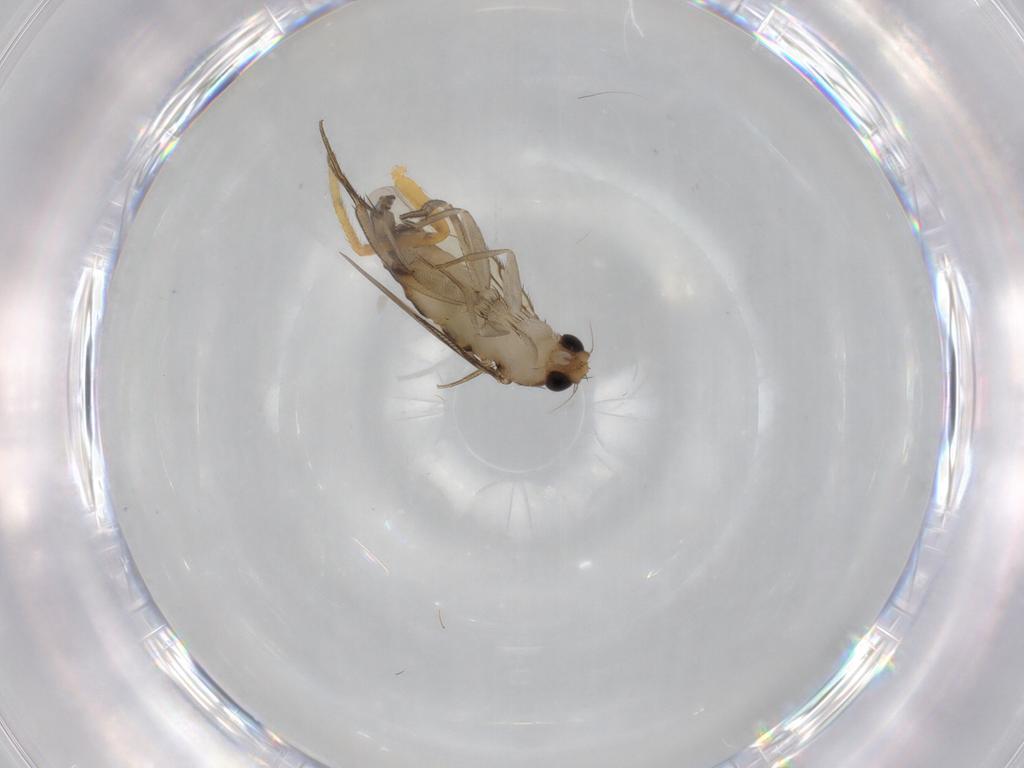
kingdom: Animalia
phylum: Arthropoda
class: Insecta
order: Diptera
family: Phoridae
